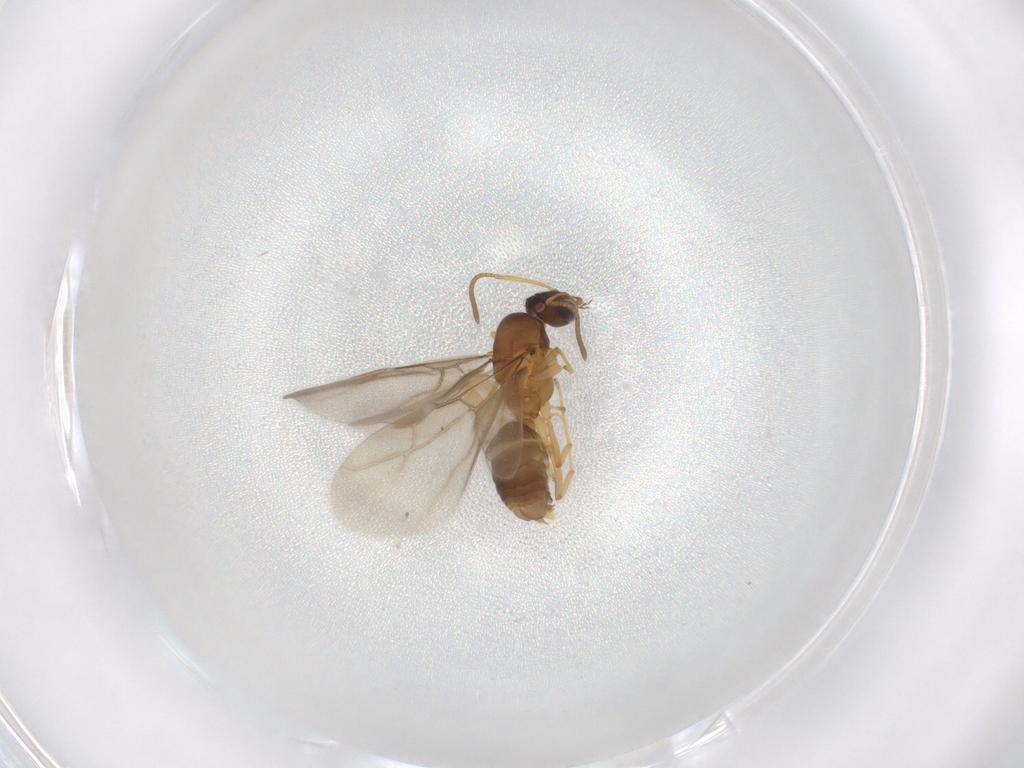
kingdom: Animalia
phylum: Arthropoda
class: Insecta
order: Hymenoptera
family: Formicidae
